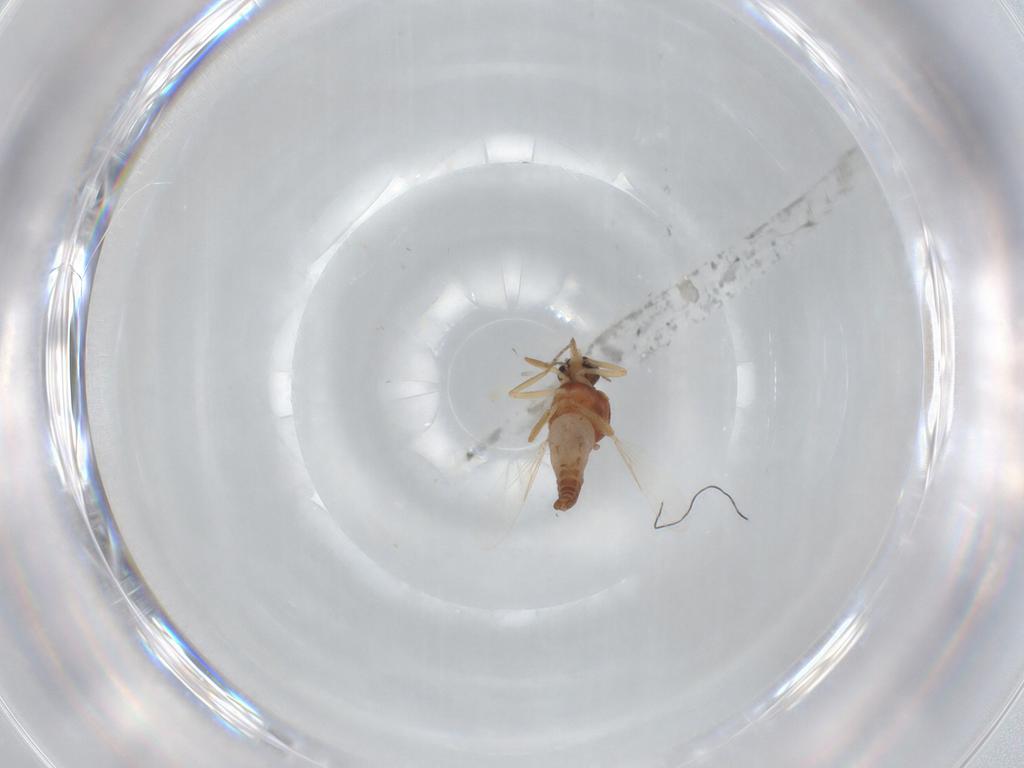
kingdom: Animalia
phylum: Arthropoda
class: Insecta
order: Diptera
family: Ceratopogonidae
